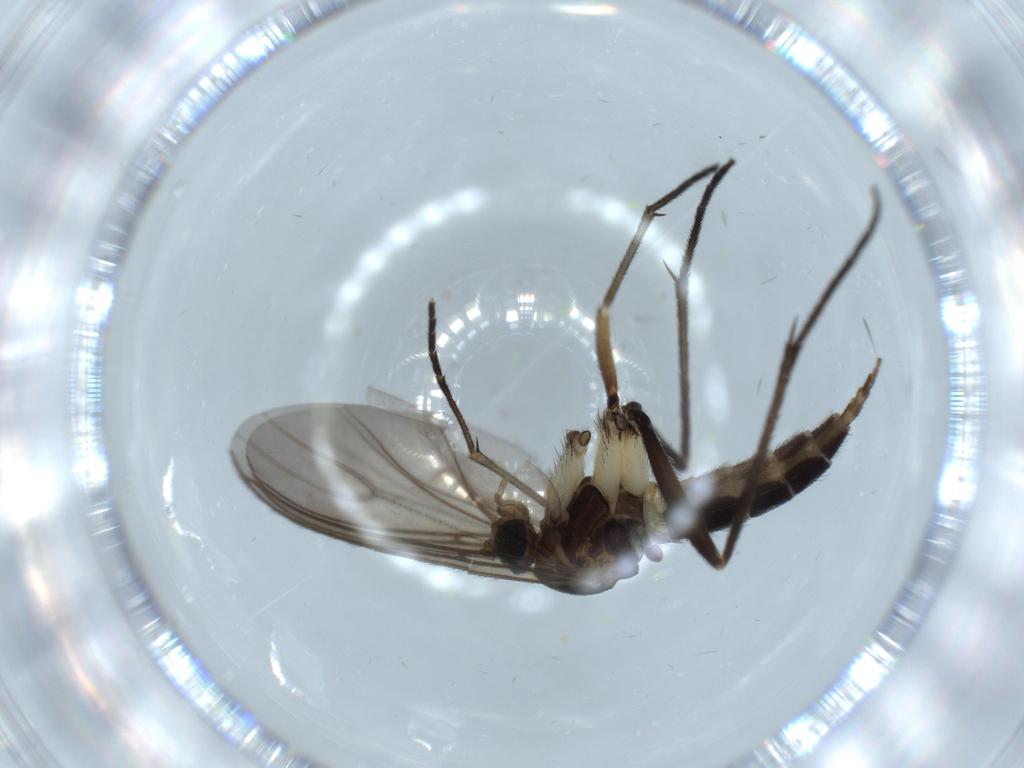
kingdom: Animalia
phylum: Arthropoda
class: Insecta
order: Diptera
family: Sciaridae
